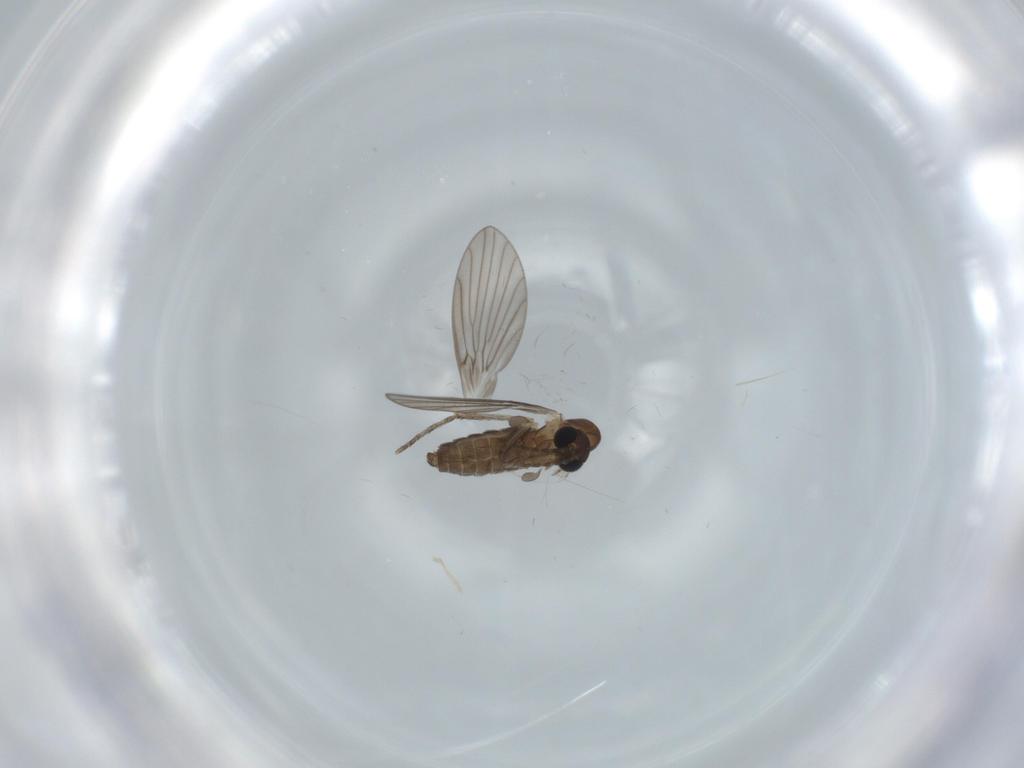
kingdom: Animalia
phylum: Arthropoda
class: Insecta
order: Diptera
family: Psychodidae
